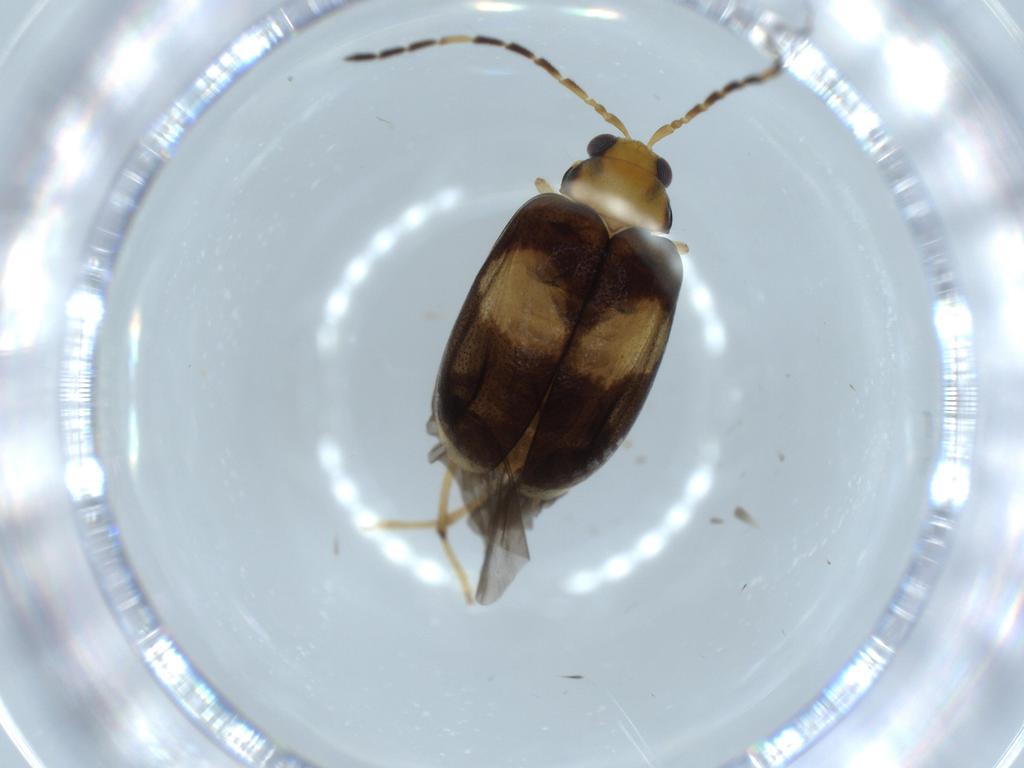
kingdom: Animalia
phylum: Arthropoda
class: Insecta
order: Coleoptera
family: Chrysomelidae
